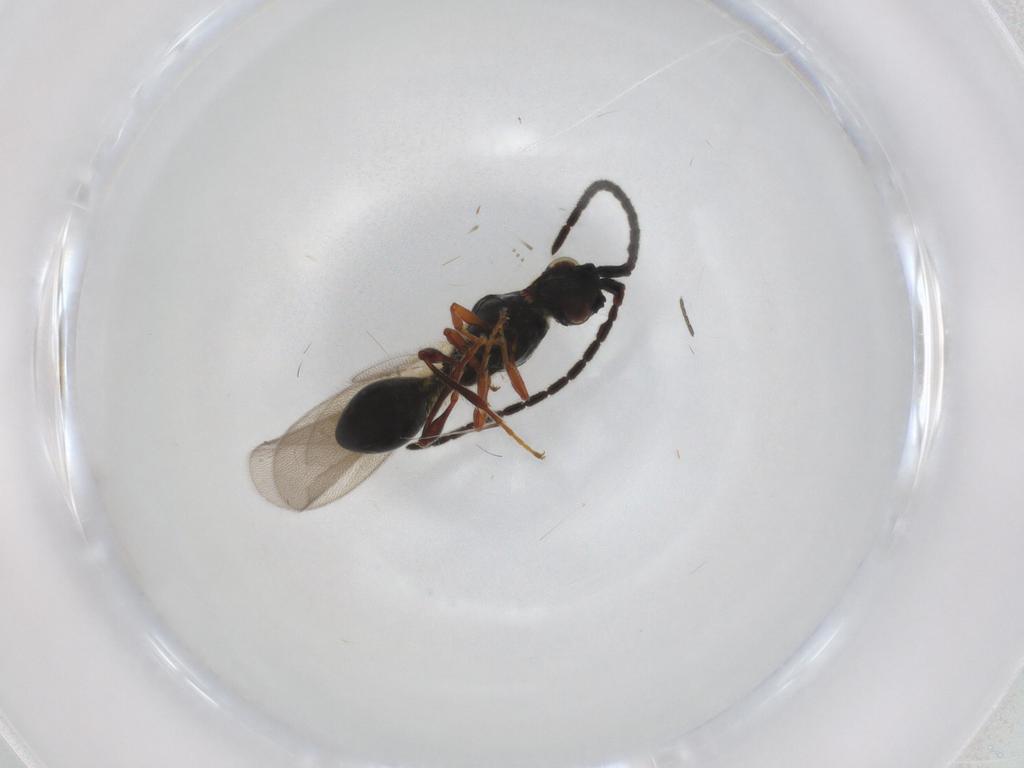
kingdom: Animalia
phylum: Arthropoda
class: Insecta
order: Hymenoptera
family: Diapriidae
